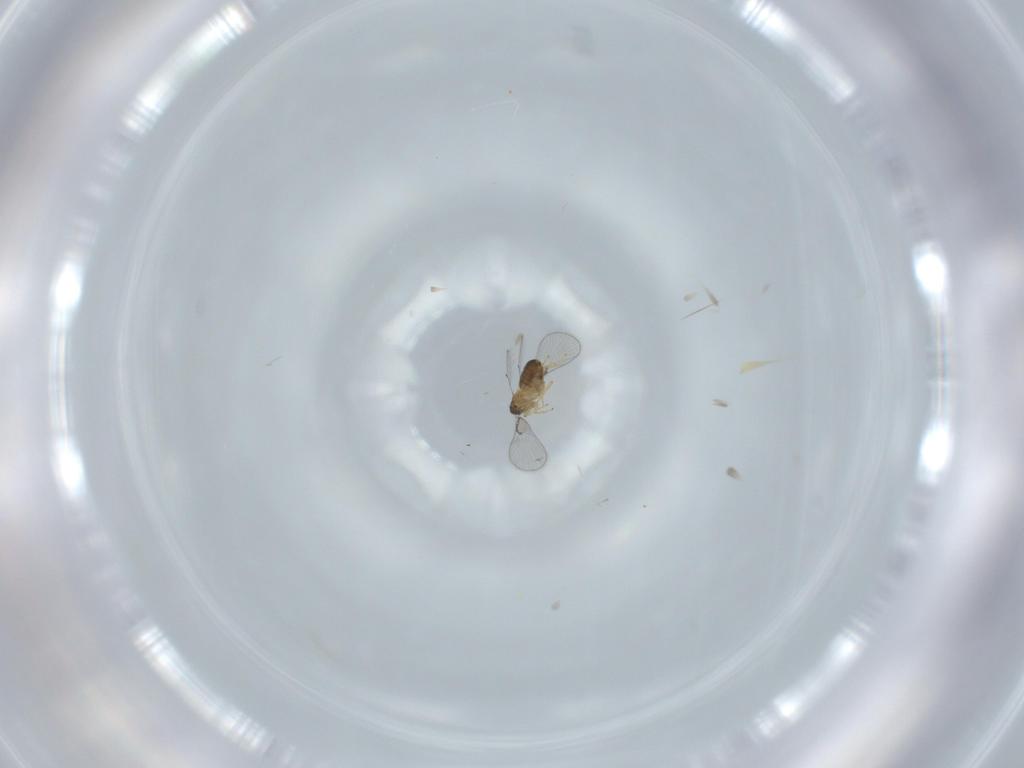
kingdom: Animalia
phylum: Arthropoda
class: Insecta
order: Hymenoptera
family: Trichogrammatidae
